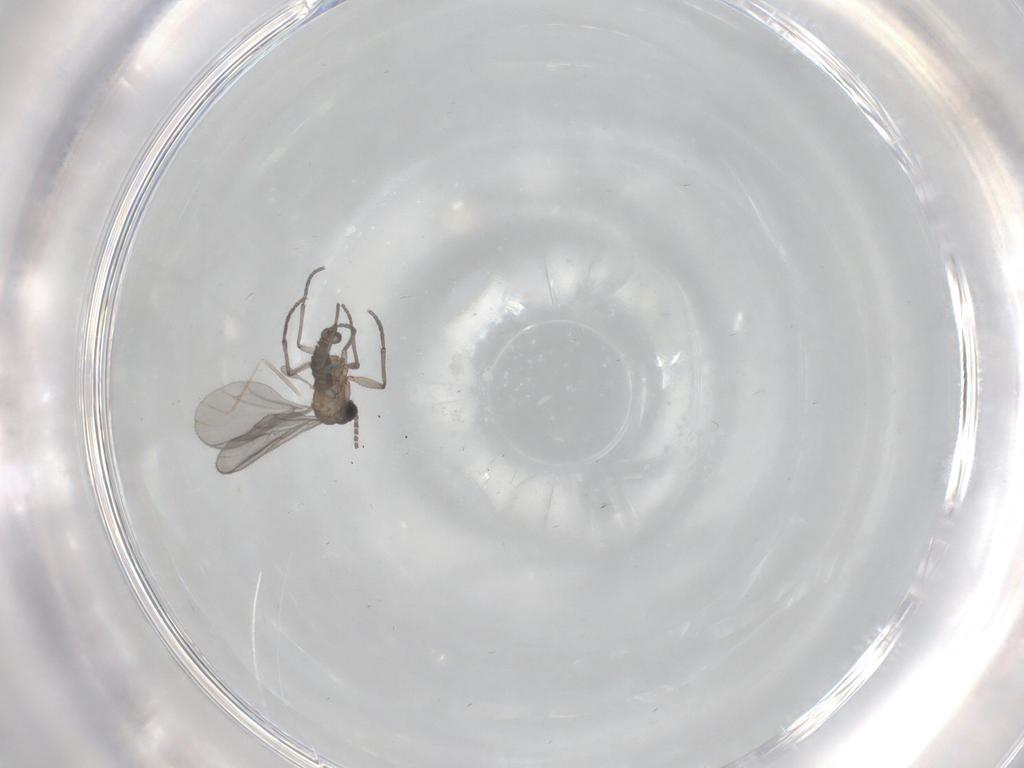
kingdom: Animalia
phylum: Arthropoda
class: Insecta
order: Diptera
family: Sciaridae
